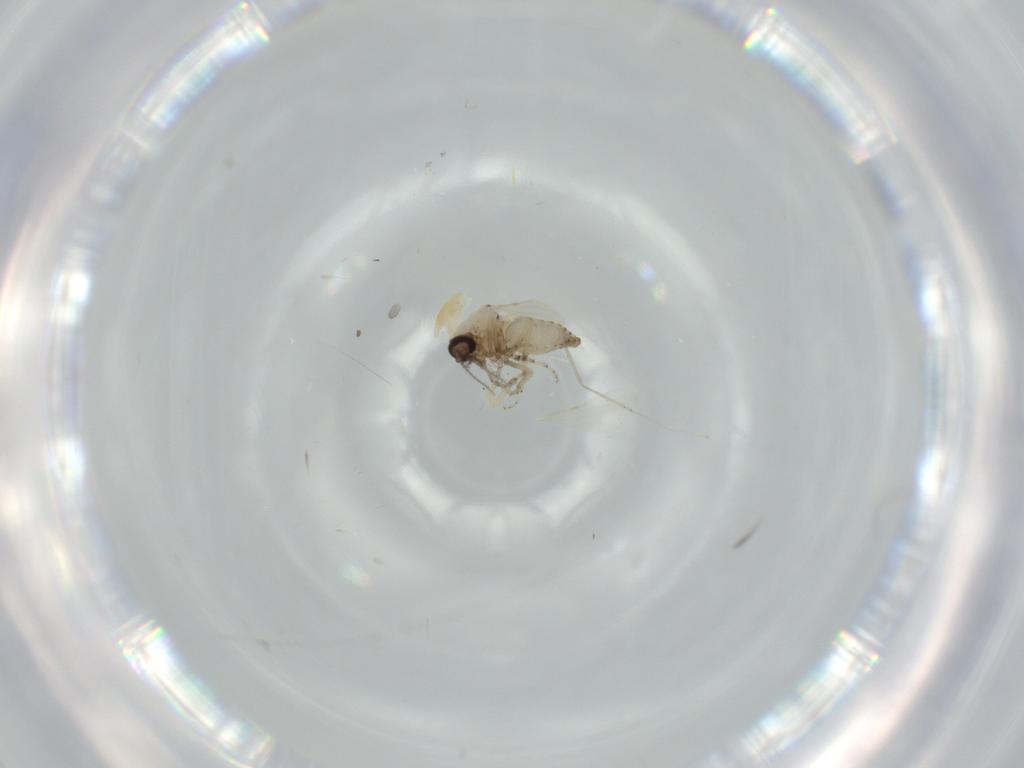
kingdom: Animalia
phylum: Arthropoda
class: Insecta
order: Diptera
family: Ceratopogonidae
